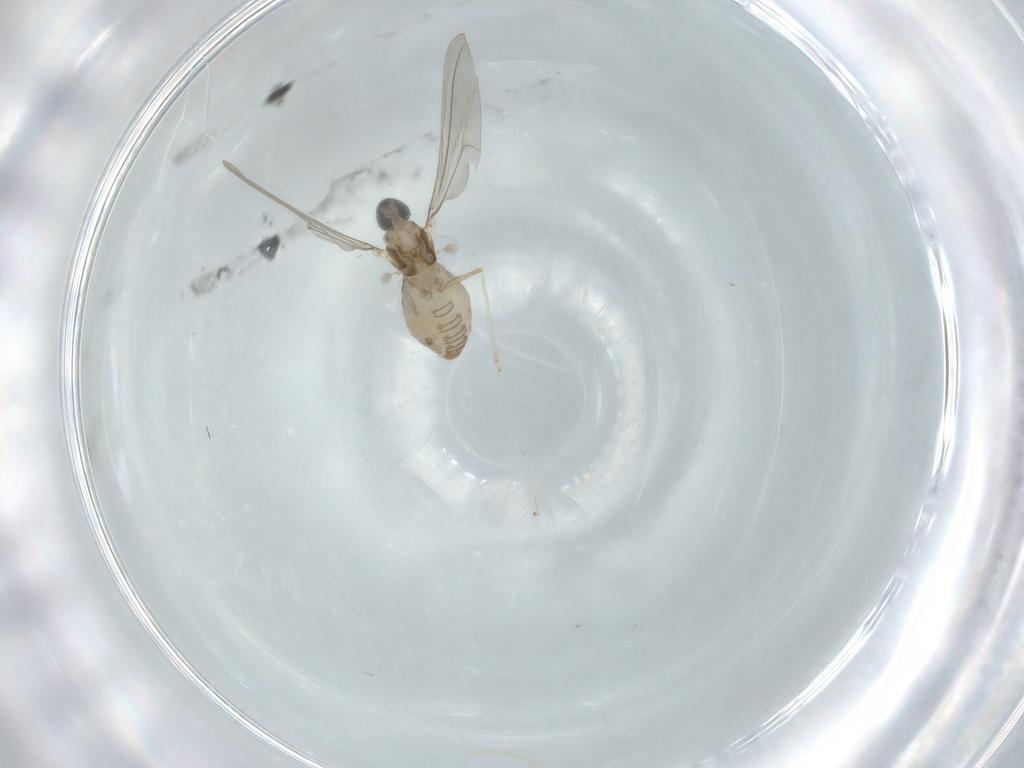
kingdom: Animalia
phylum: Arthropoda
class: Insecta
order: Diptera
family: Cecidomyiidae
